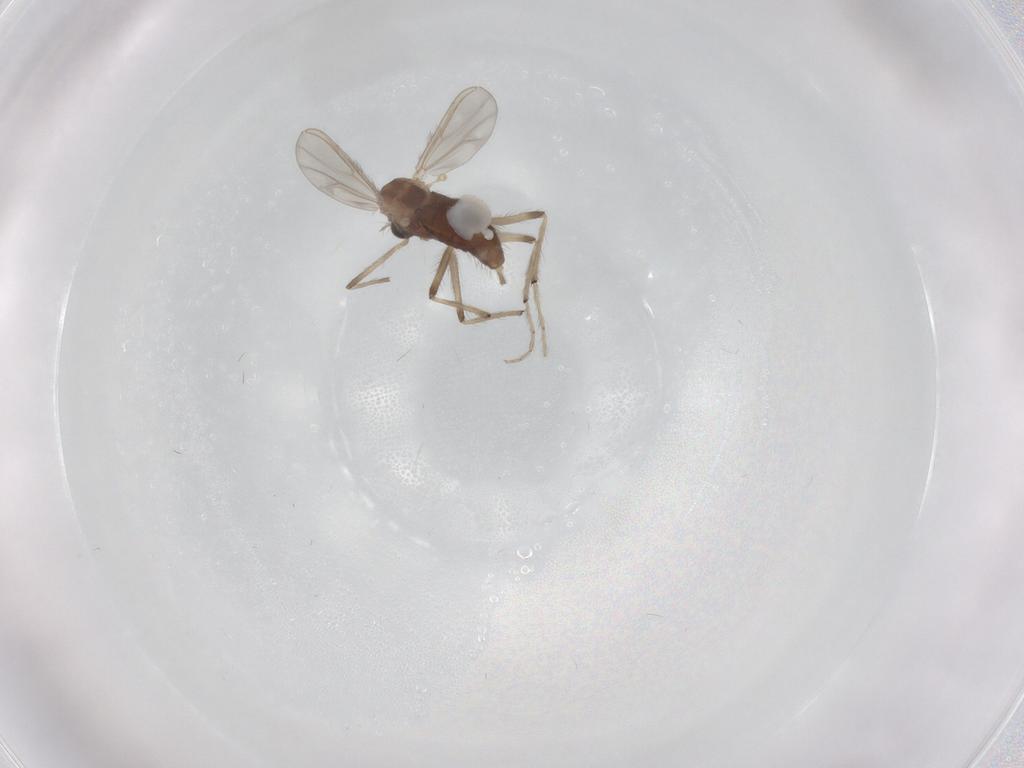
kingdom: Animalia
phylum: Arthropoda
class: Insecta
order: Diptera
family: Chironomidae
